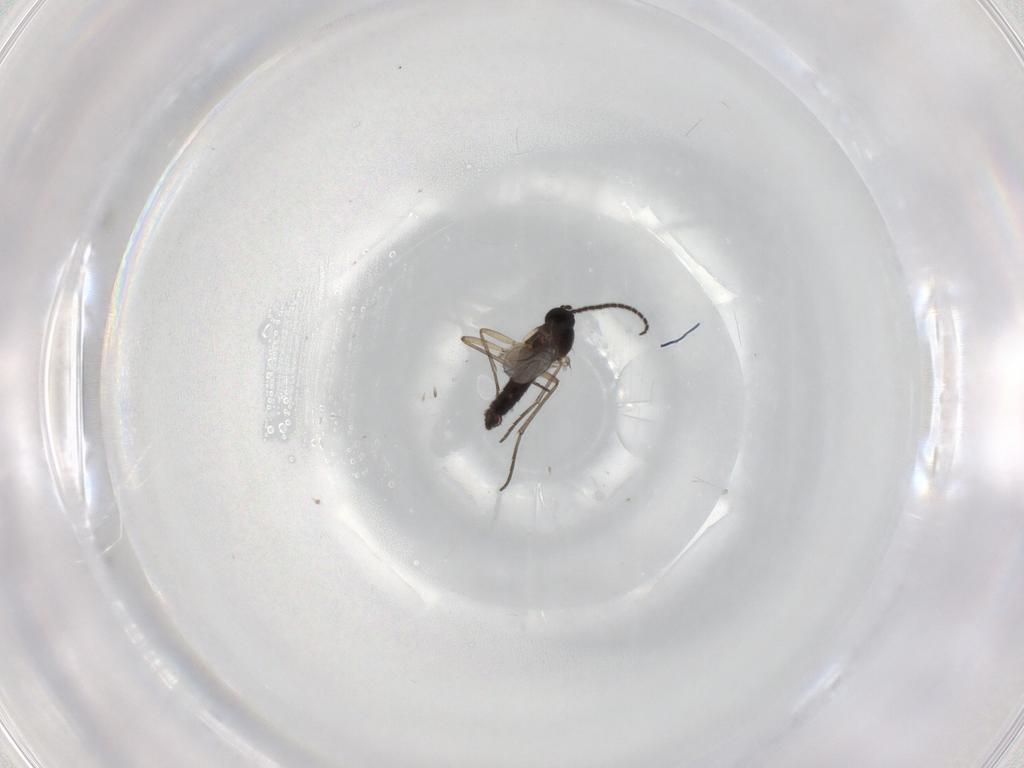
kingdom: Animalia
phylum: Arthropoda
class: Insecta
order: Diptera
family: Sciaridae
